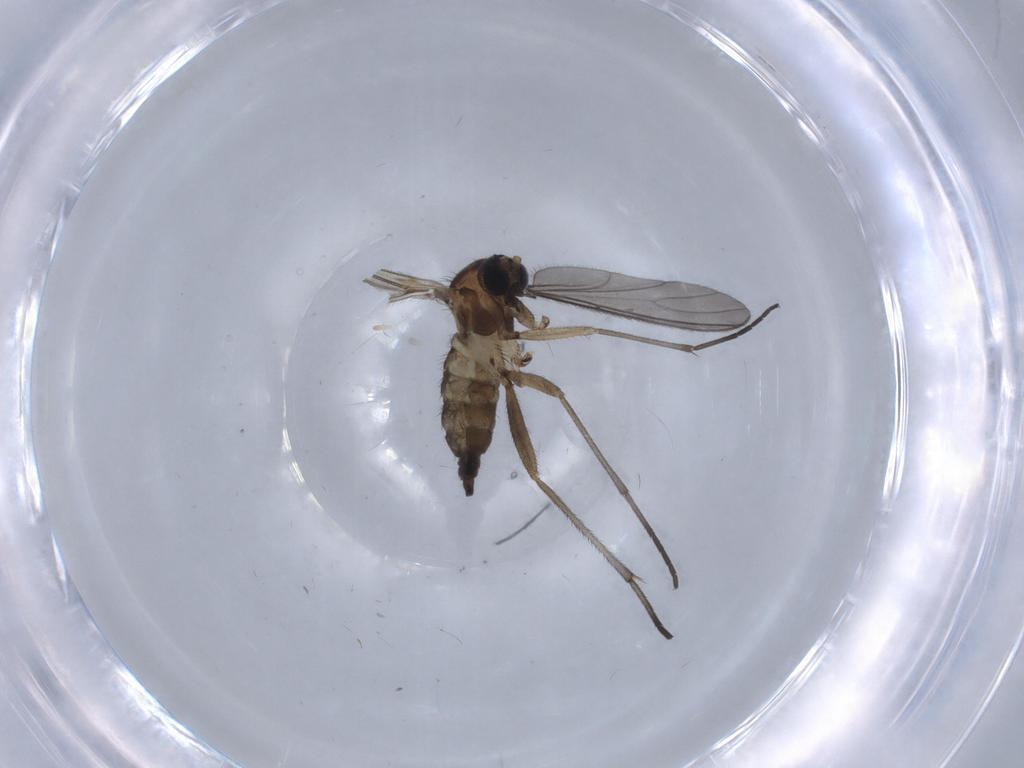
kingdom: Animalia
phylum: Arthropoda
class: Insecta
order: Diptera
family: Sciaridae
